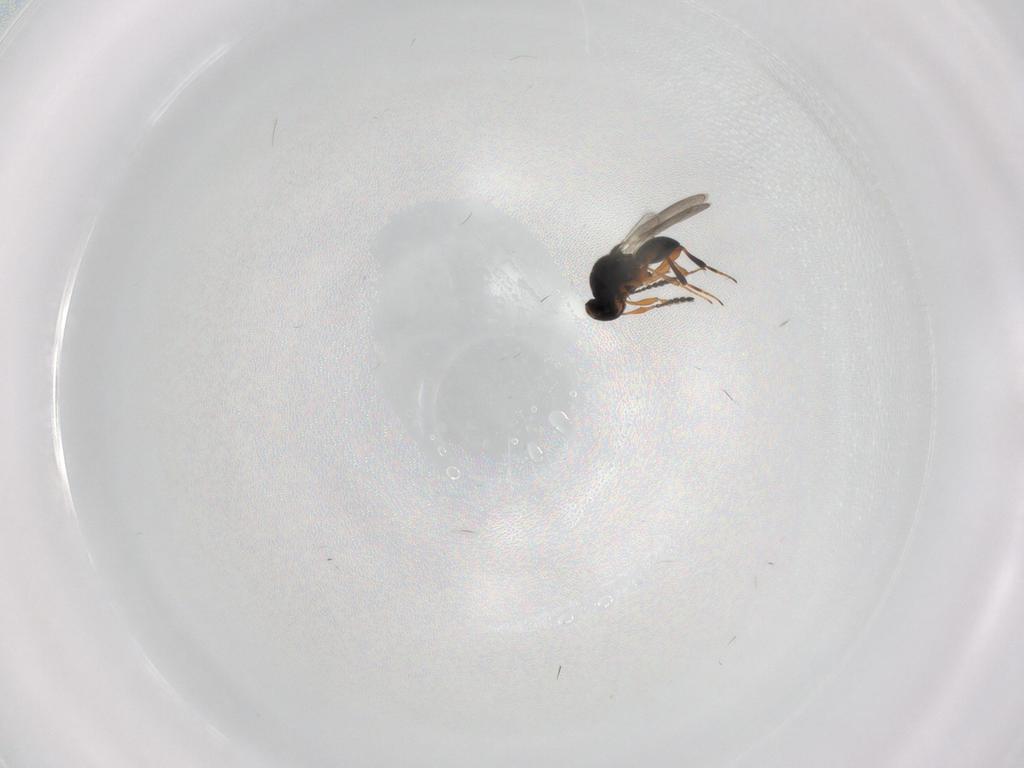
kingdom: Animalia
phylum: Arthropoda
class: Insecta
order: Hymenoptera
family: Platygastridae
